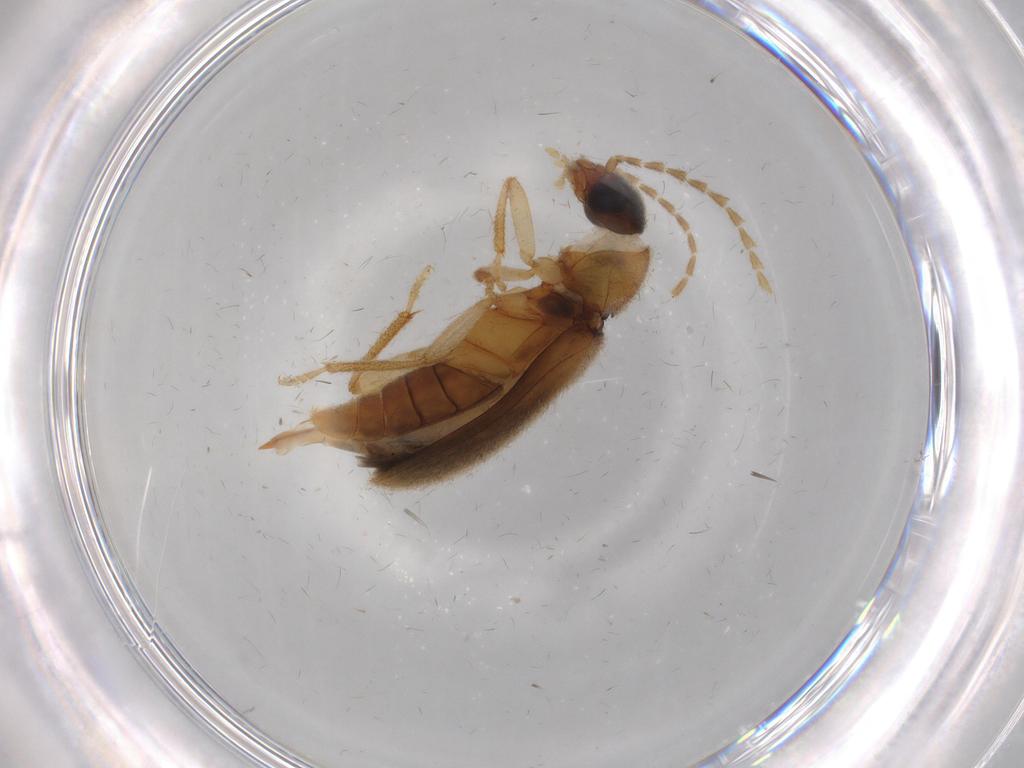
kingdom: Animalia
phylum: Arthropoda
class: Insecta
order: Coleoptera
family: Ptilodactylidae
